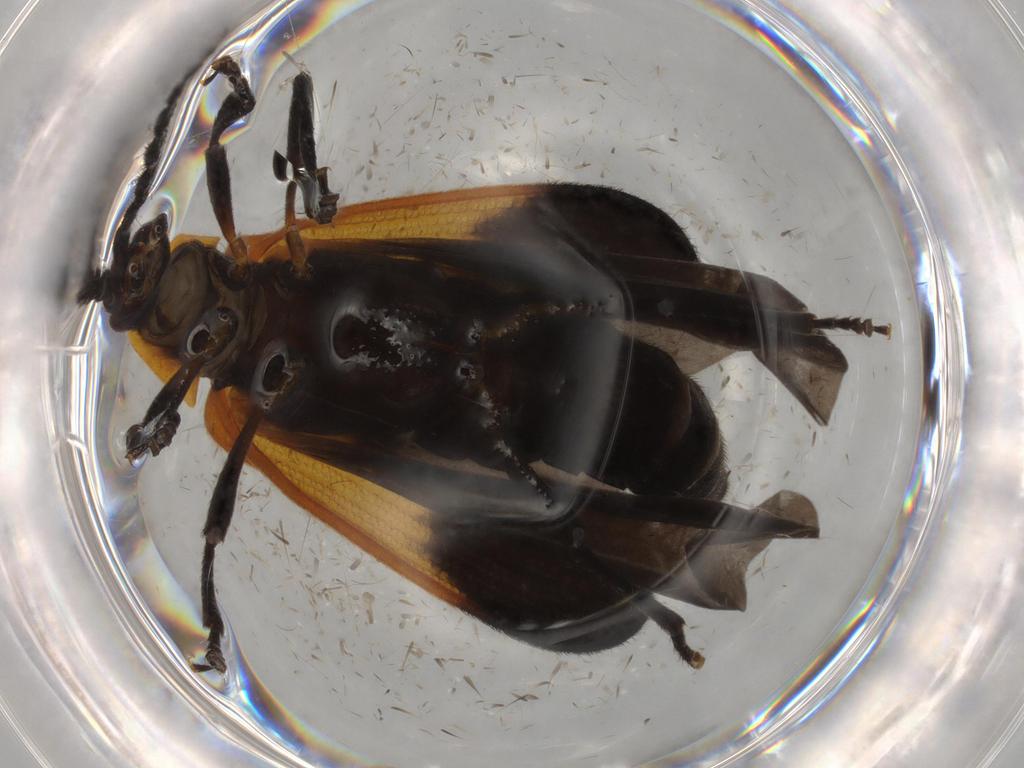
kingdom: Animalia
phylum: Arthropoda
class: Insecta
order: Coleoptera
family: Lycidae
